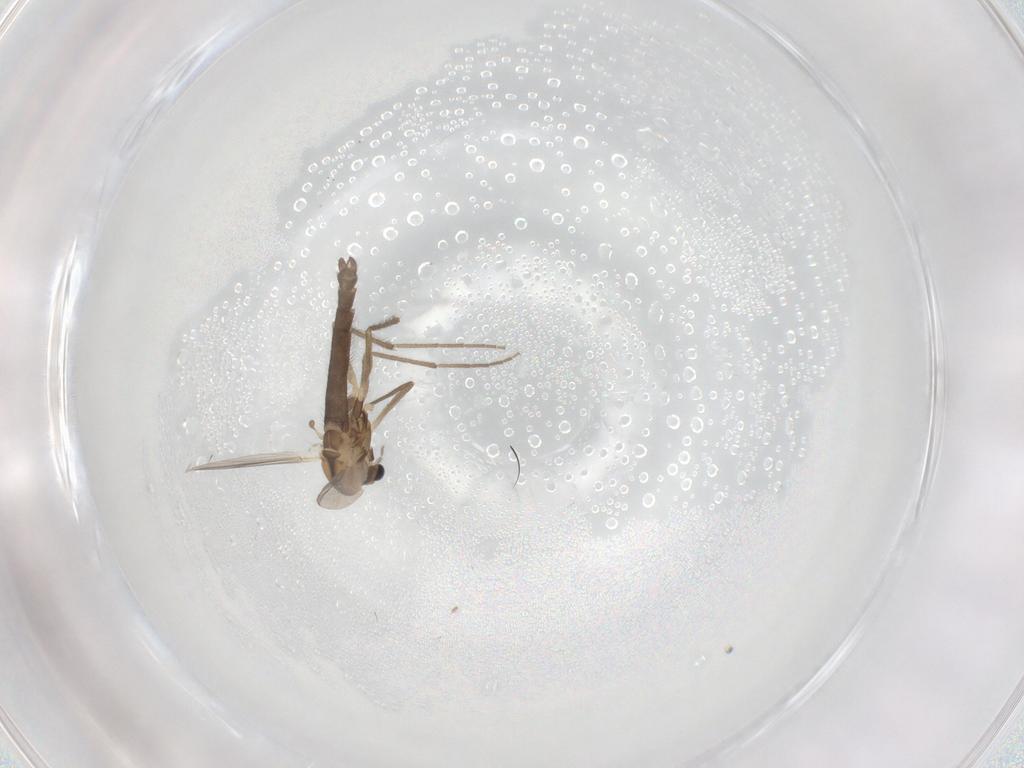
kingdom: Animalia
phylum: Arthropoda
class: Insecta
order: Diptera
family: Chironomidae
